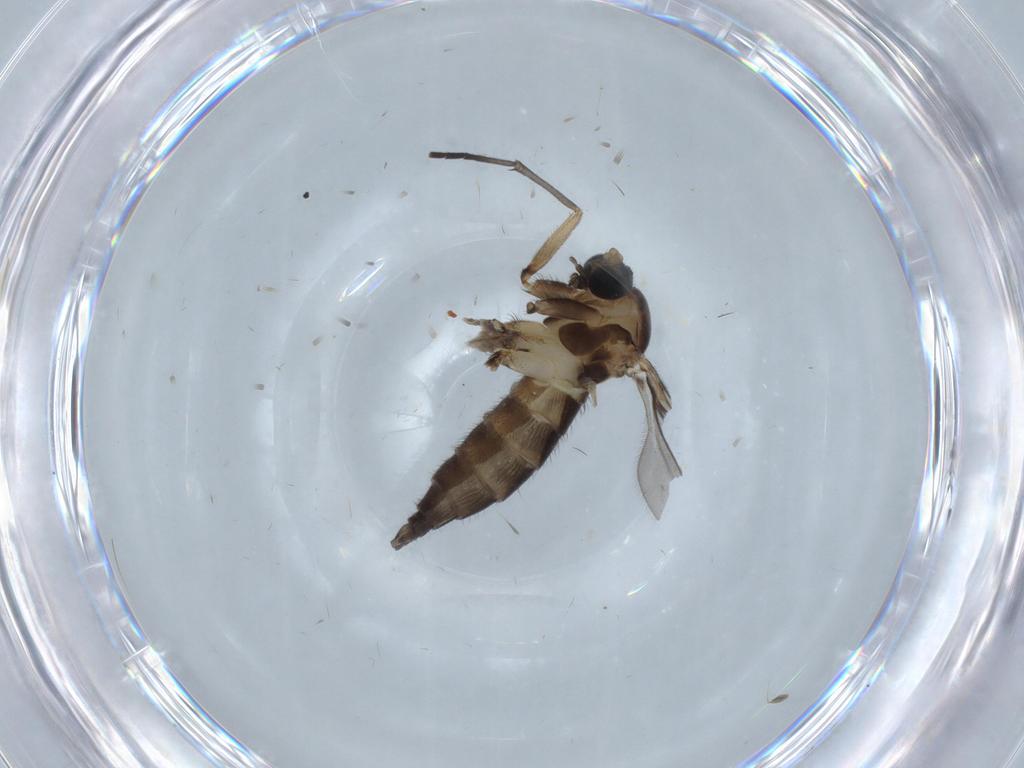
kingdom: Animalia
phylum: Arthropoda
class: Insecta
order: Diptera
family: Sciaridae
